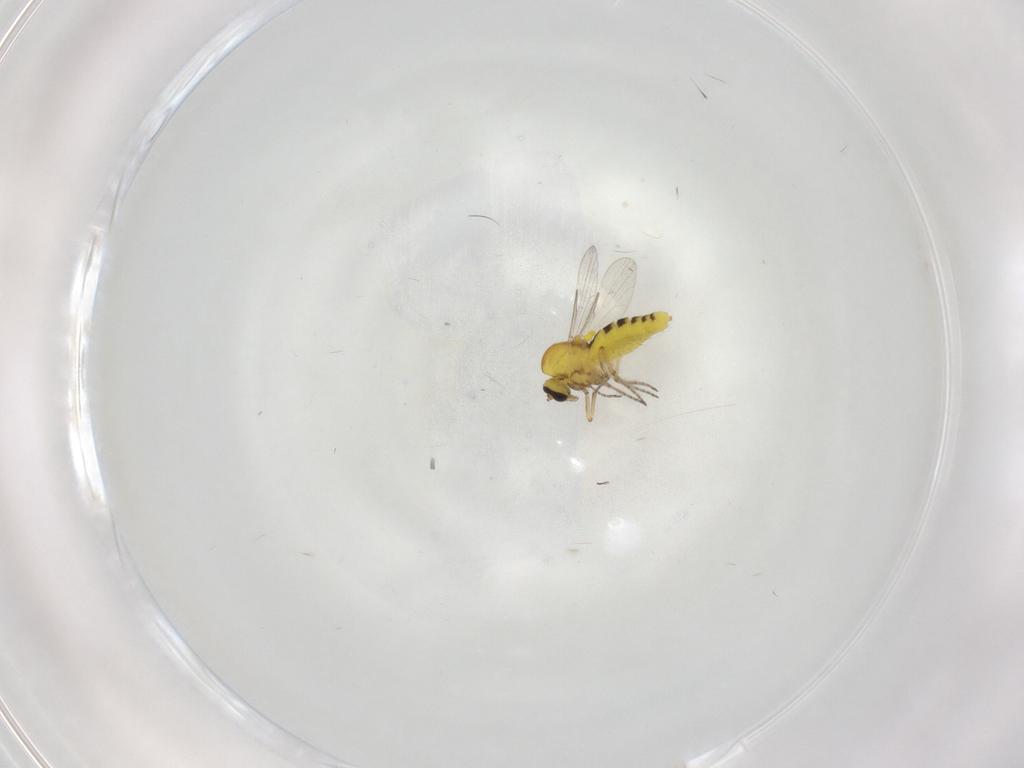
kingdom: Animalia
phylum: Arthropoda
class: Insecta
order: Diptera
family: Ceratopogonidae
